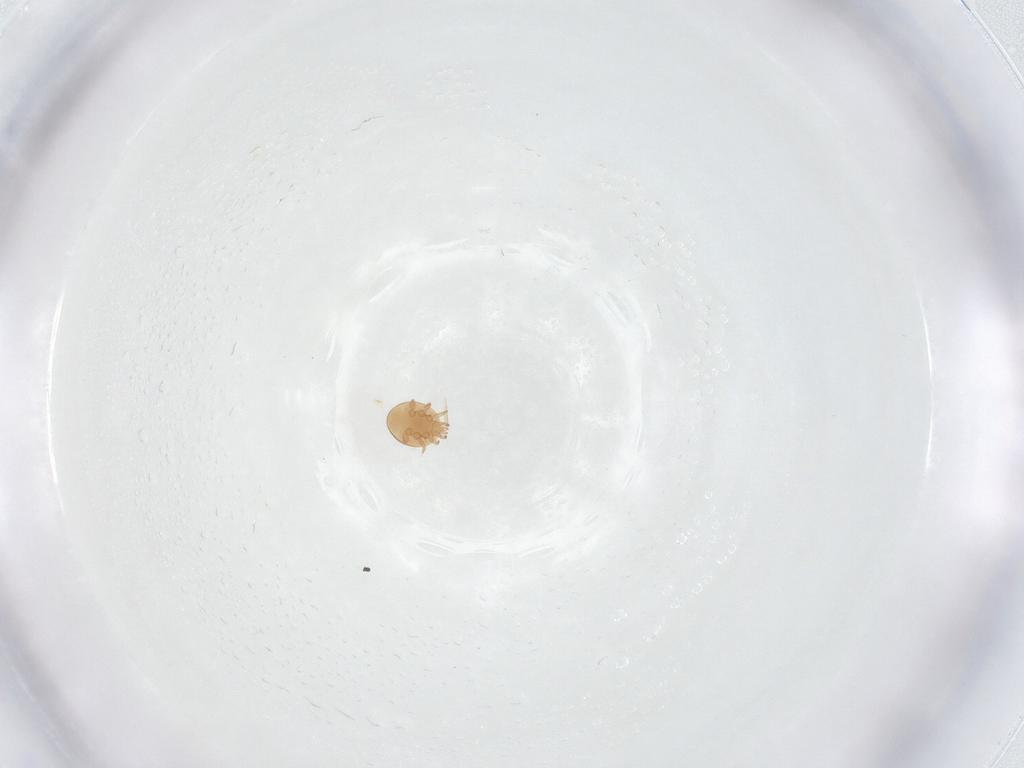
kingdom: Animalia
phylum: Arthropoda
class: Arachnida
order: Mesostigmata
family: Trematuridae
